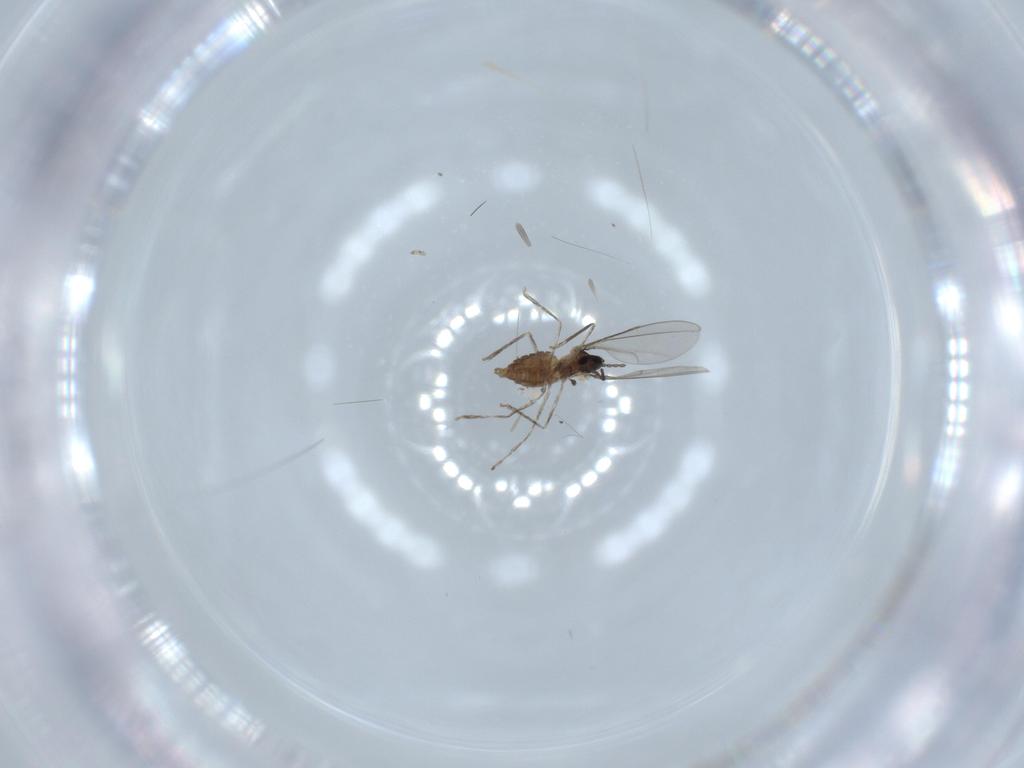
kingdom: Animalia
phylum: Arthropoda
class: Insecta
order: Diptera
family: Cecidomyiidae
